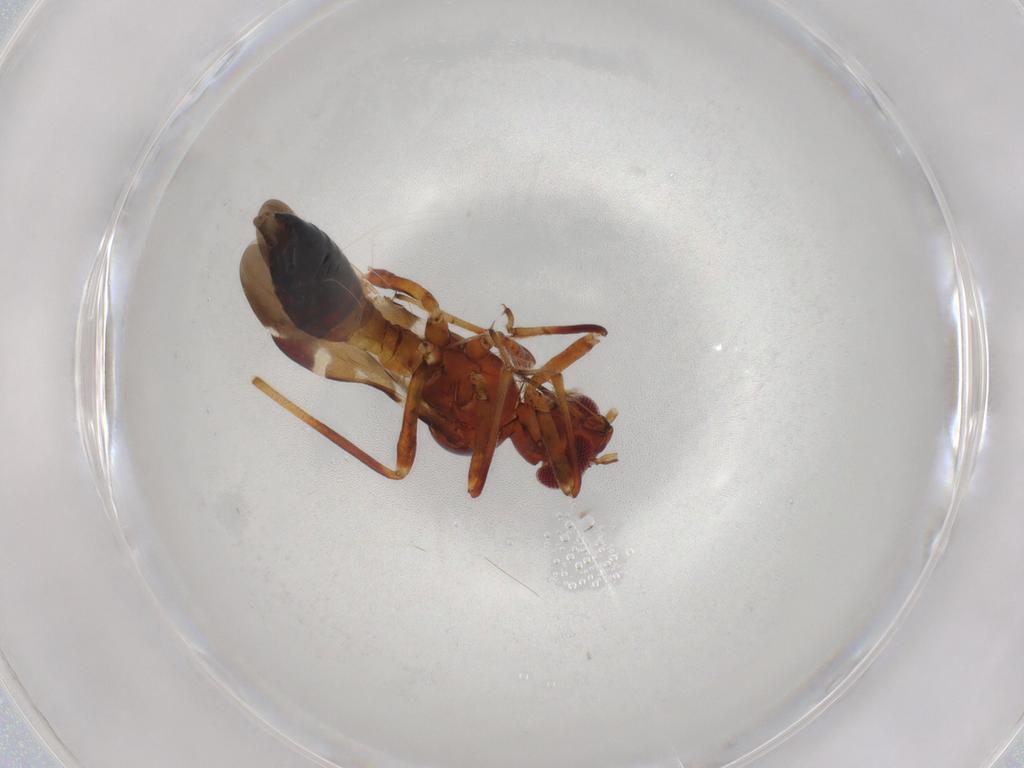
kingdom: Animalia
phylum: Arthropoda
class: Insecta
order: Hemiptera
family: Miridae
